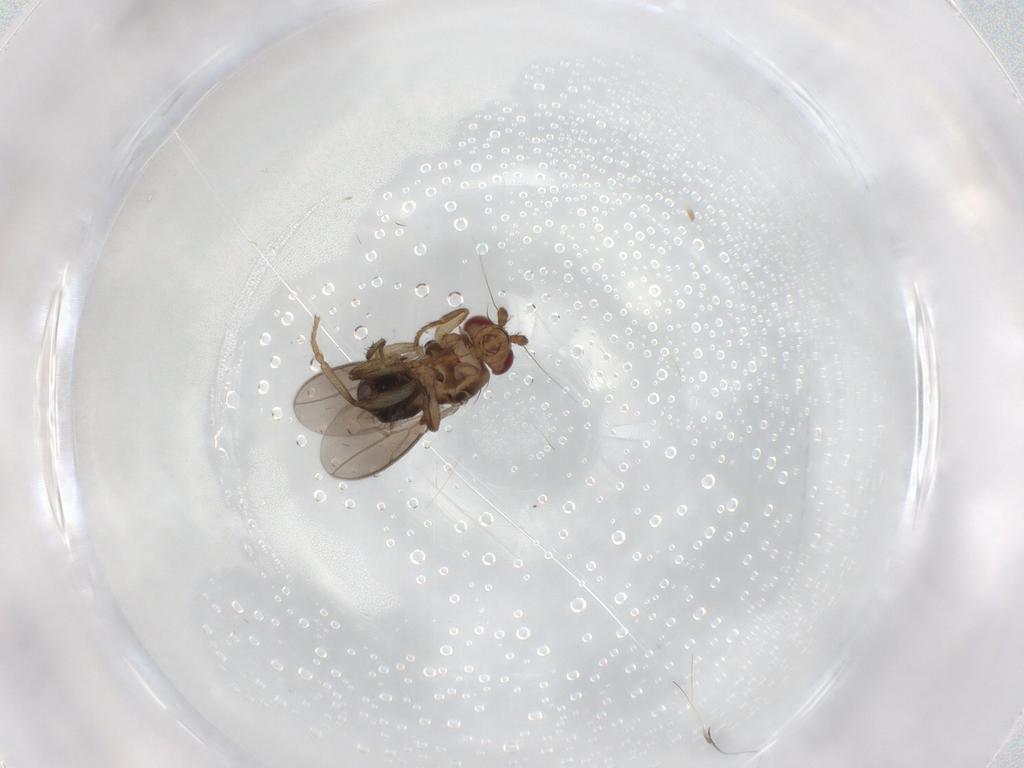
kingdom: Animalia
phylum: Arthropoda
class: Insecta
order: Diptera
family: Sphaeroceridae
